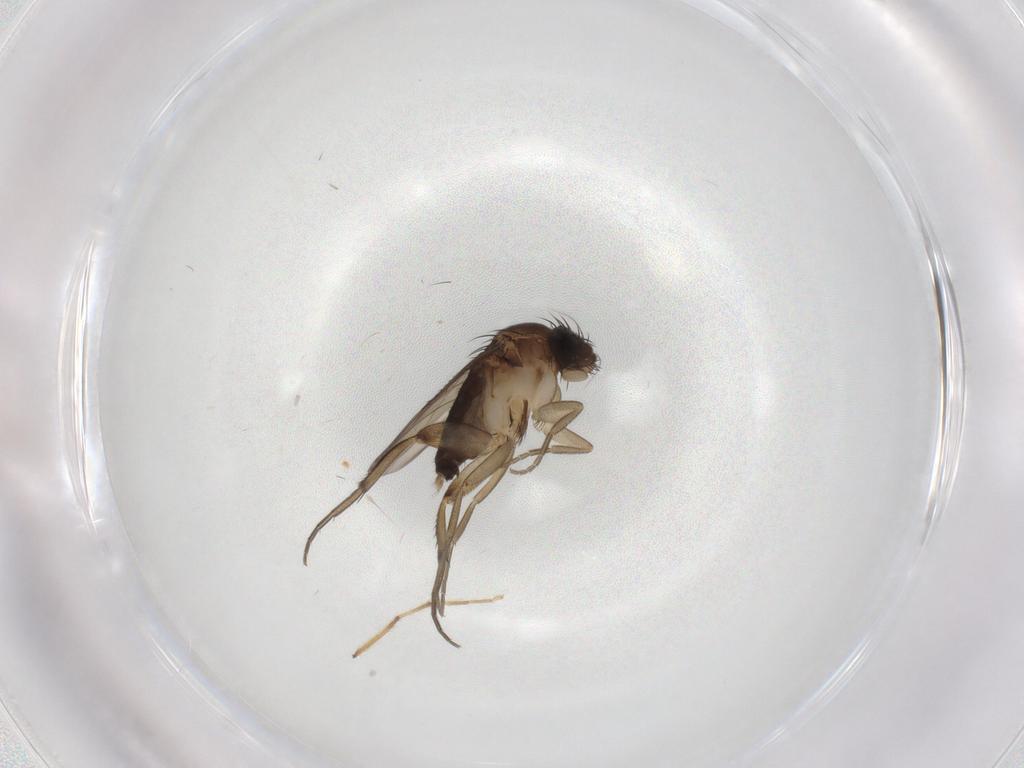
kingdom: Animalia
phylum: Arthropoda
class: Insecta
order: Diptera
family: Phoridae
